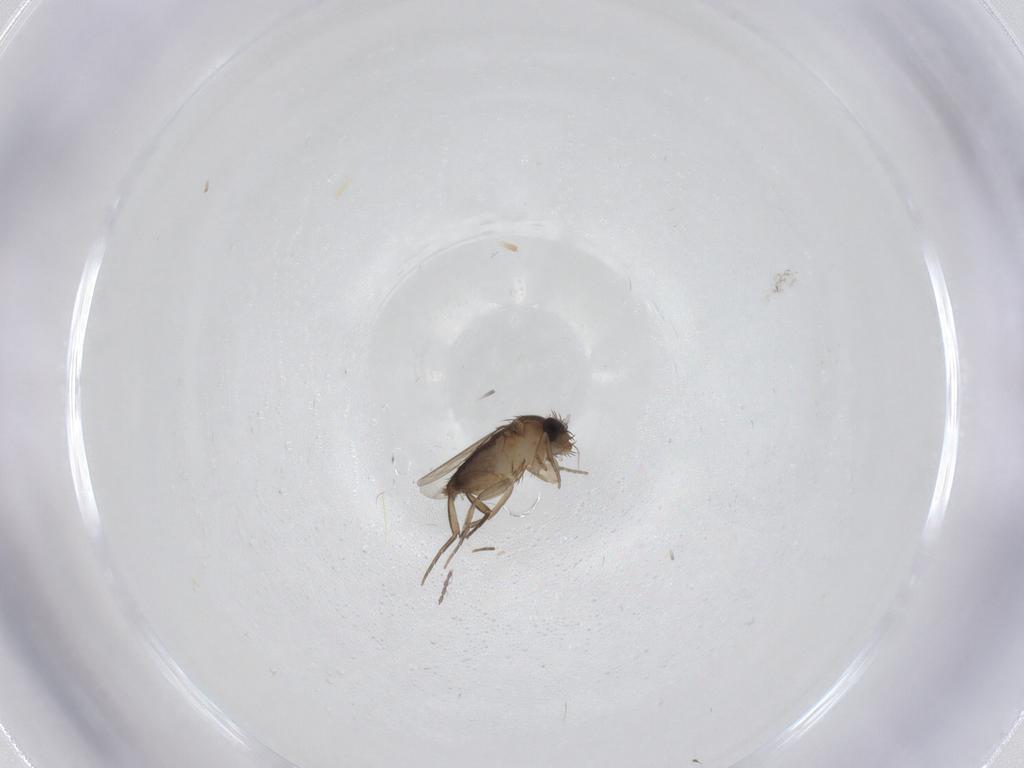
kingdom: Animalia
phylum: Arthropoda
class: Insecta
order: Diptera
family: Phoridae
